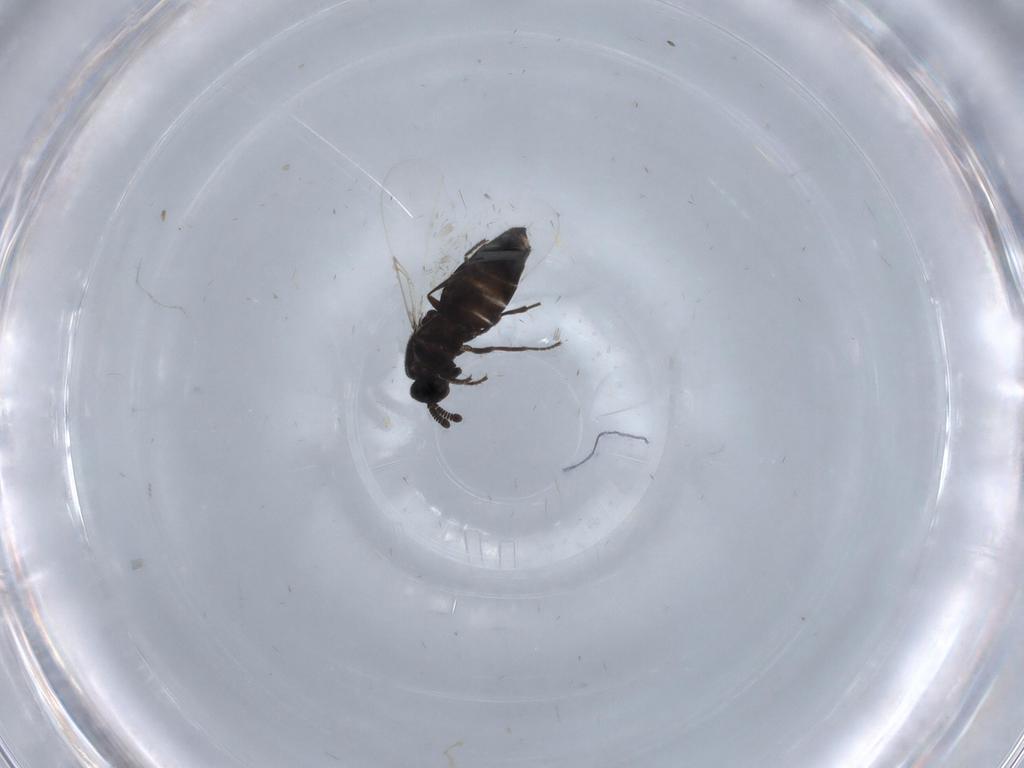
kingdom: Animalia
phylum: Arthropoda
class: Insecta
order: Diptera
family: Scatopsidae
